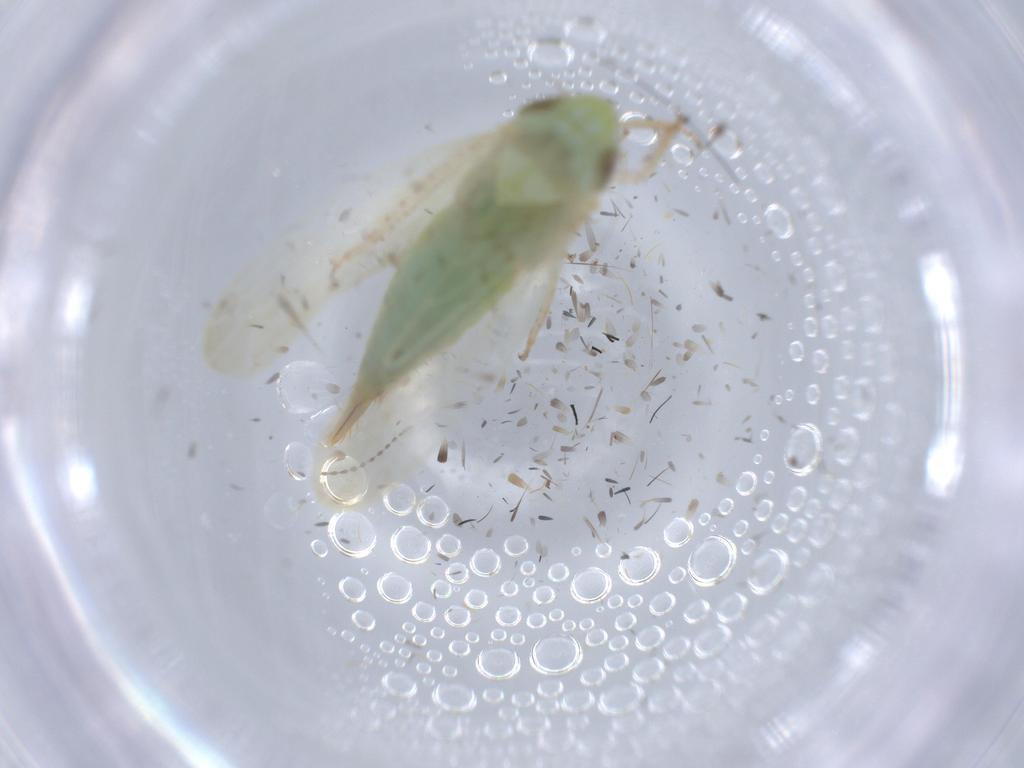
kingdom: Animalia
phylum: Arthropoda
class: Insecta
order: Hemiptera
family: Cicadellidae
